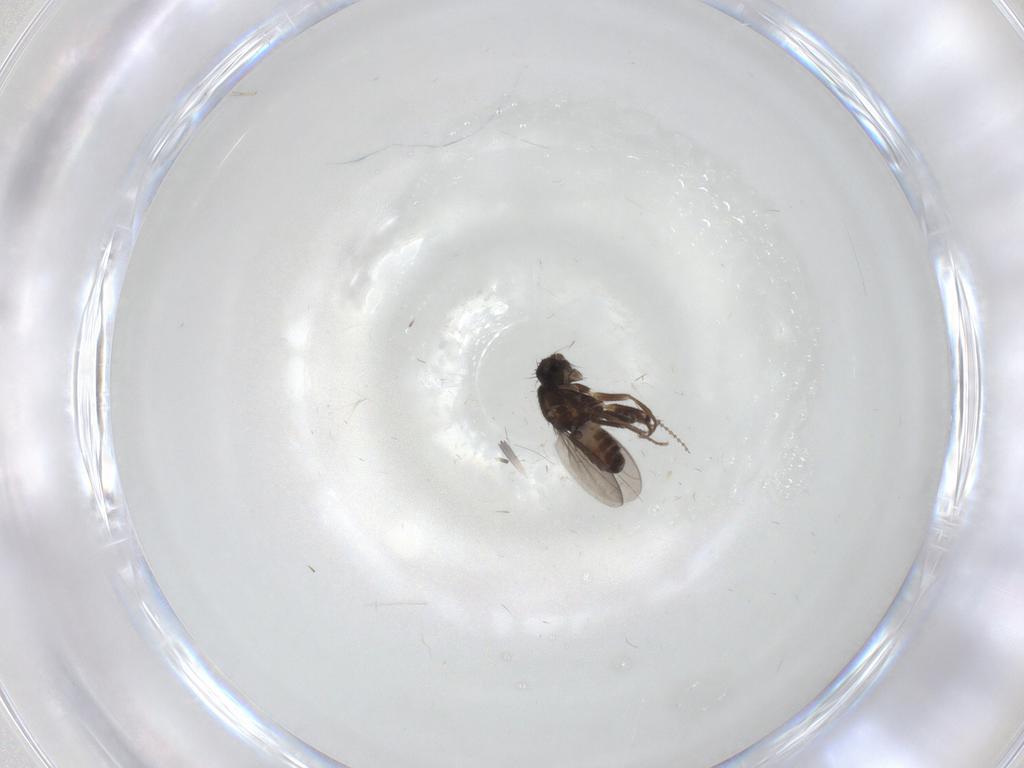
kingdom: Animalia
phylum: Arthropoda
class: Insecta
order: Diptera
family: Sphaeroceridae
